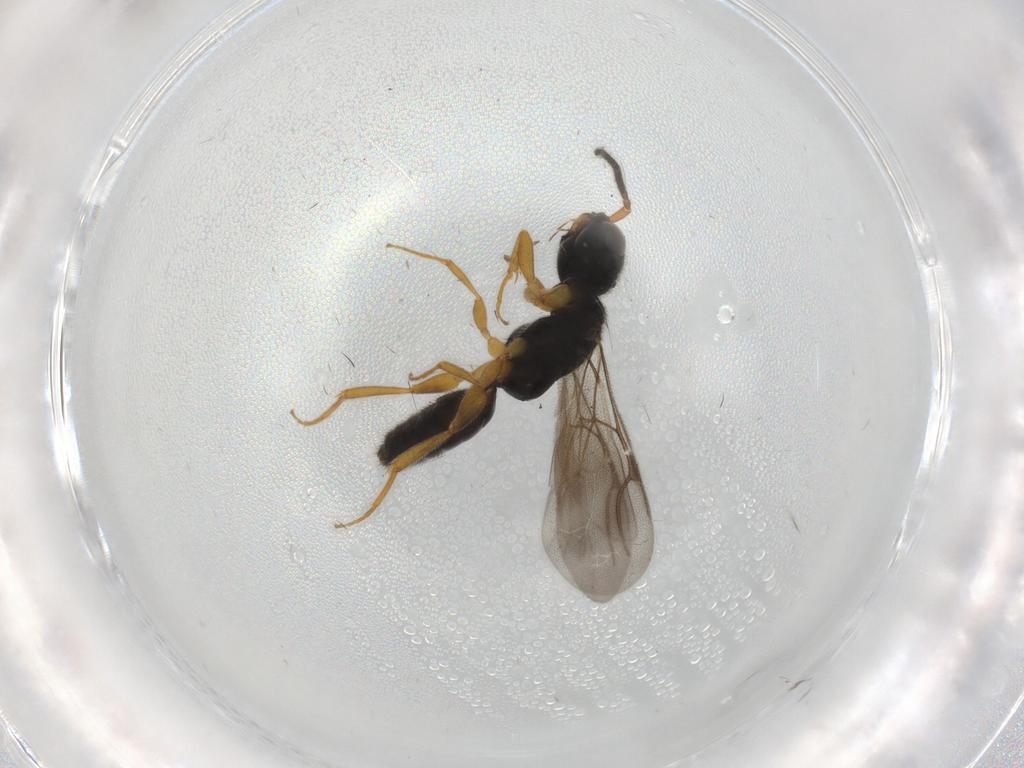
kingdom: Animalia
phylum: Arthropoda
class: Insecta
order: Hymenoptera
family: Bethylidae
